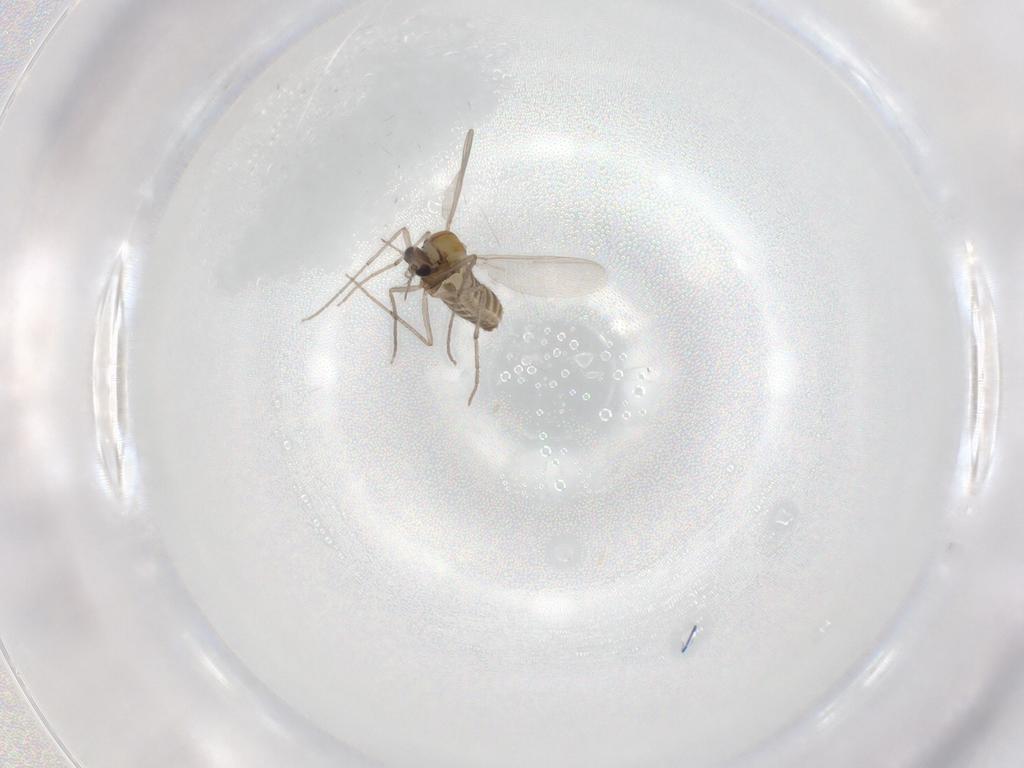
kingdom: Animalia
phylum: Arthropoda
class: Insecta
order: Diptera
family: Chironomidae
